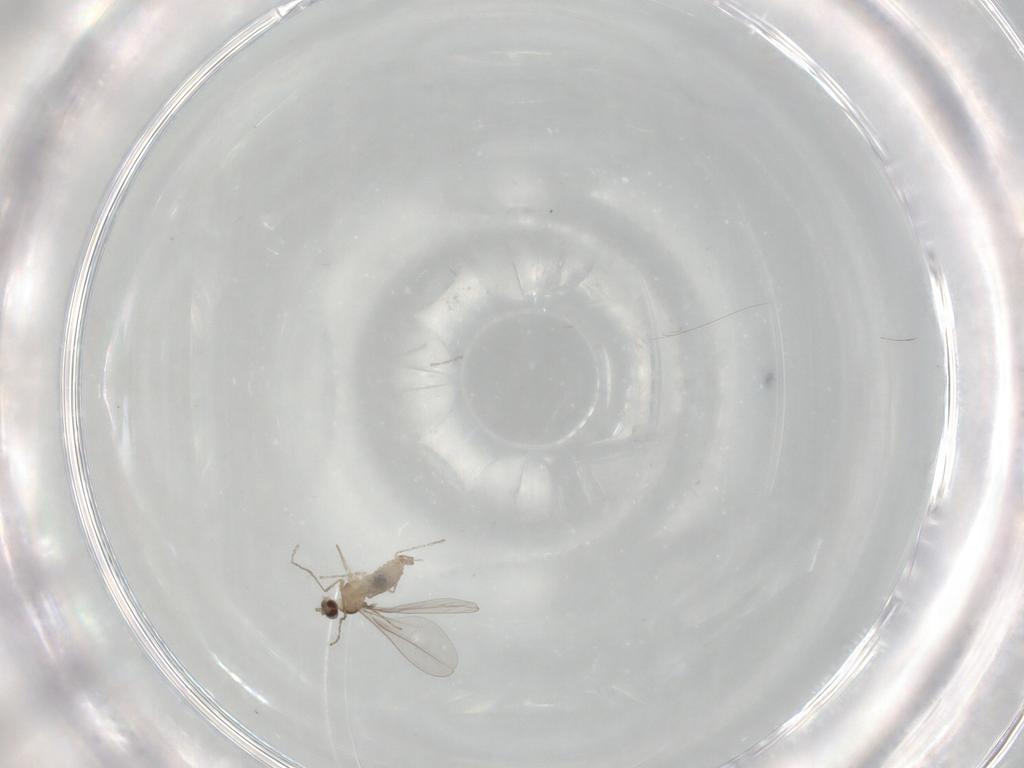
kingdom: Animalia
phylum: Arthropoda
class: Insecta
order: Diptera
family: Cecidomyiidae
